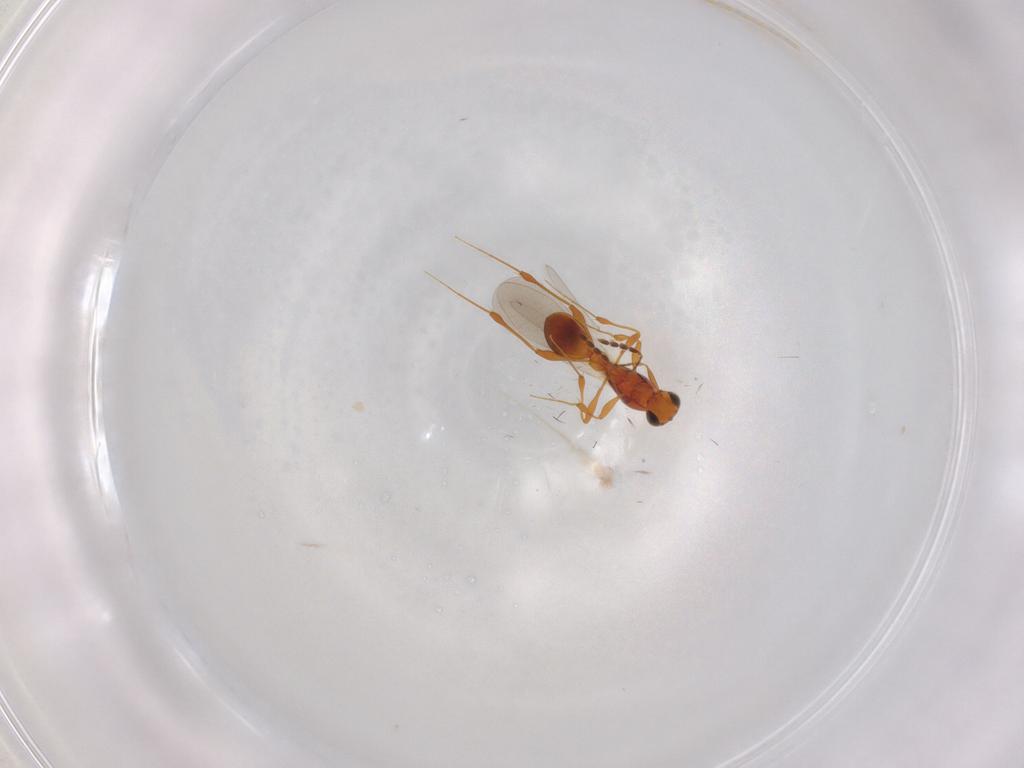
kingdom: Animalia
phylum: Arthropoda
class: Insecta
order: Hymenoptera
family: Platygastridae
